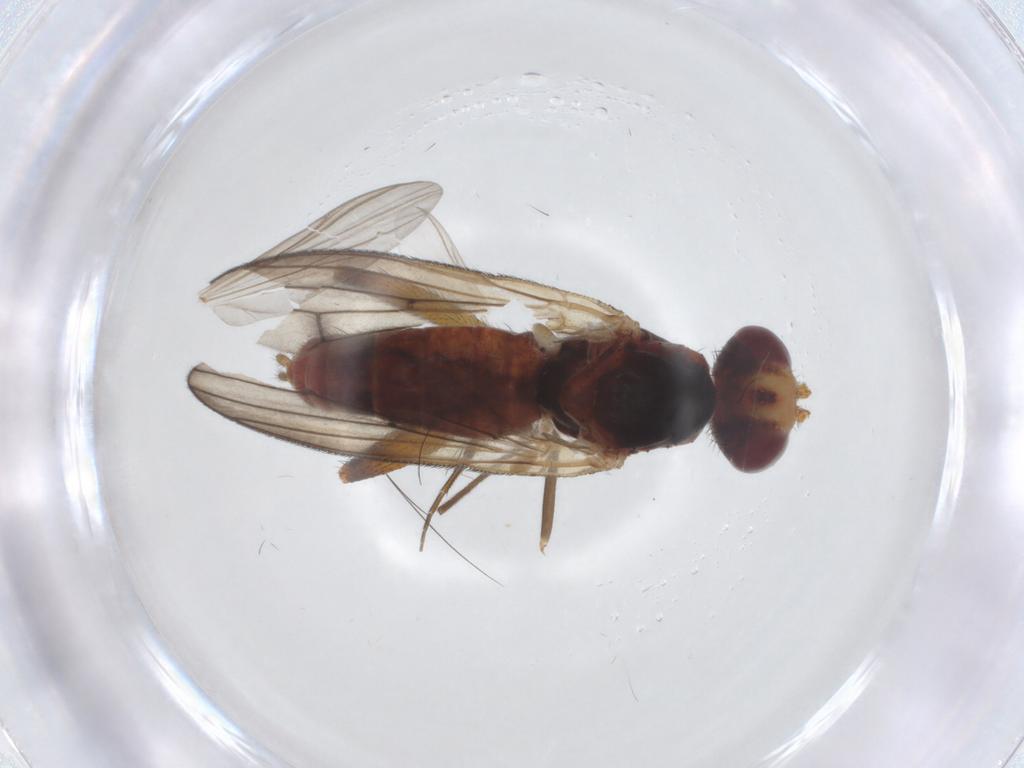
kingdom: Animalia
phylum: Arthropoda
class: Insecta
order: Diptera
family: Sciomyzidae
